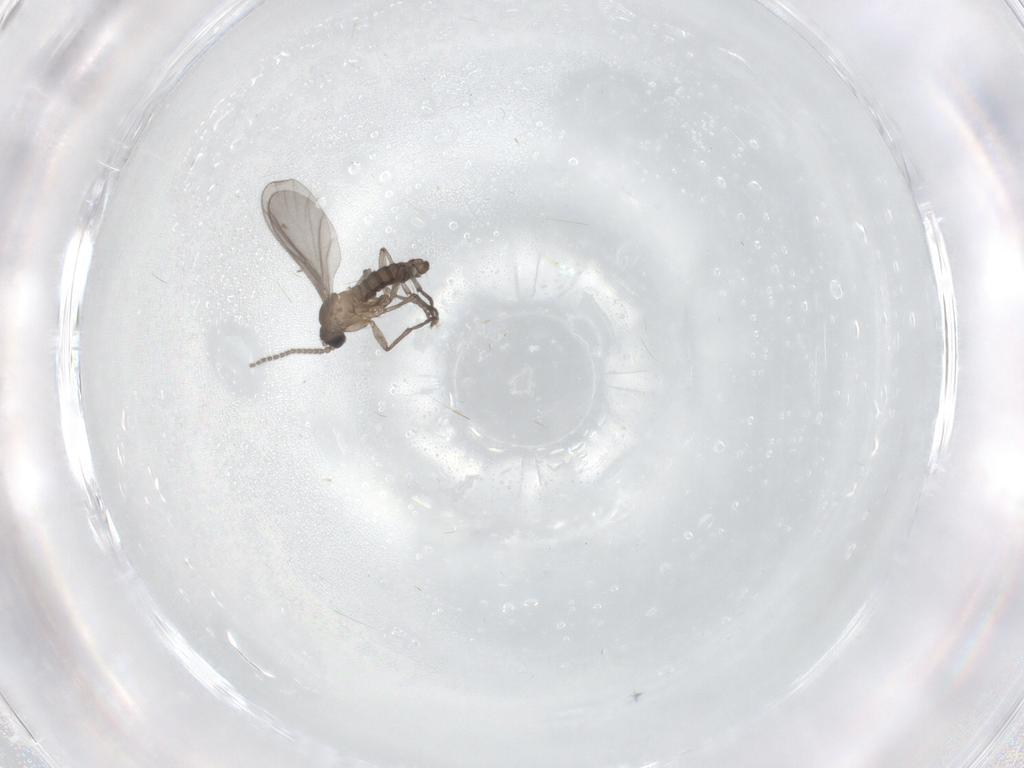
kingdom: Animalia
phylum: Arthropoda
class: Insecta
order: Diptera
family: Sciaridae
